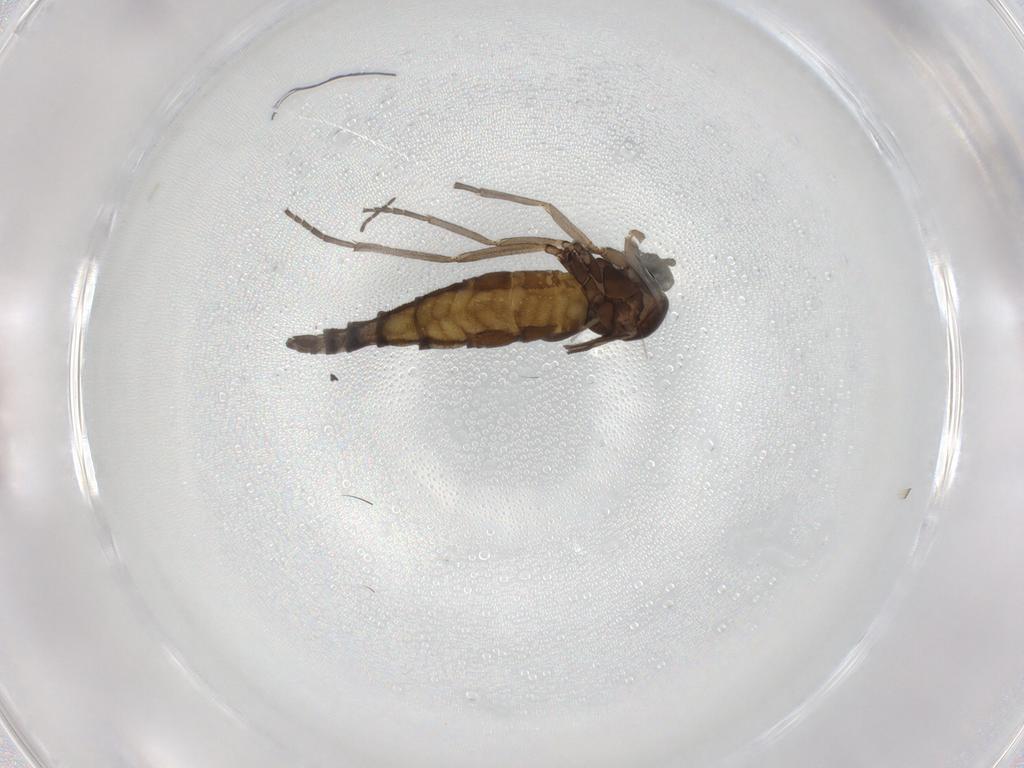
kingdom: Animalia
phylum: Arthropoda
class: Insecta
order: Diptera
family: Sciaridae
